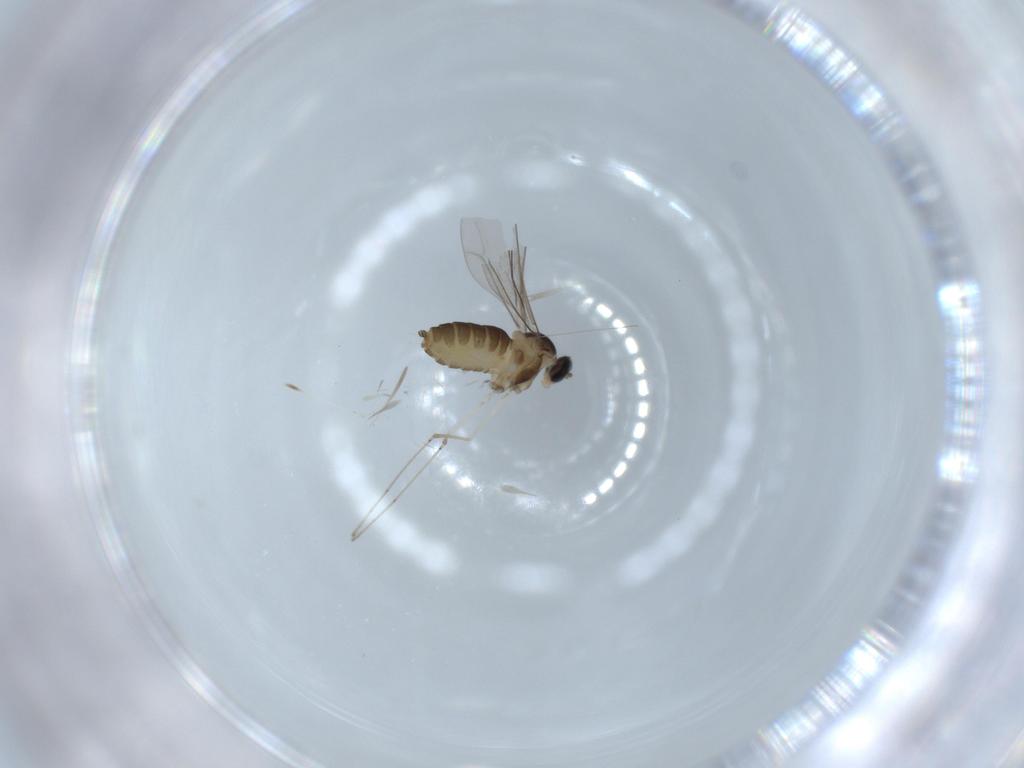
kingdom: Animalia
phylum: Arthropoda
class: Insecta
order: Diptera
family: Cecidomyiidae
